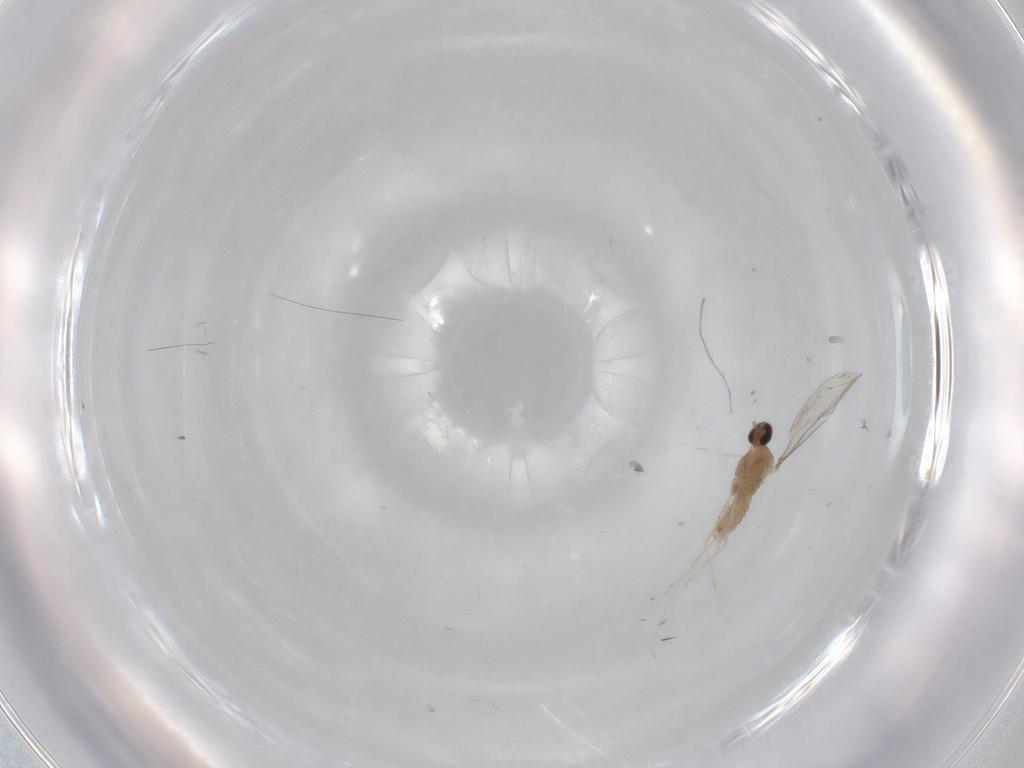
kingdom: Animalia
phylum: Arthropoda
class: Insecta
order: Diptera
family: Cecidomyiidae
